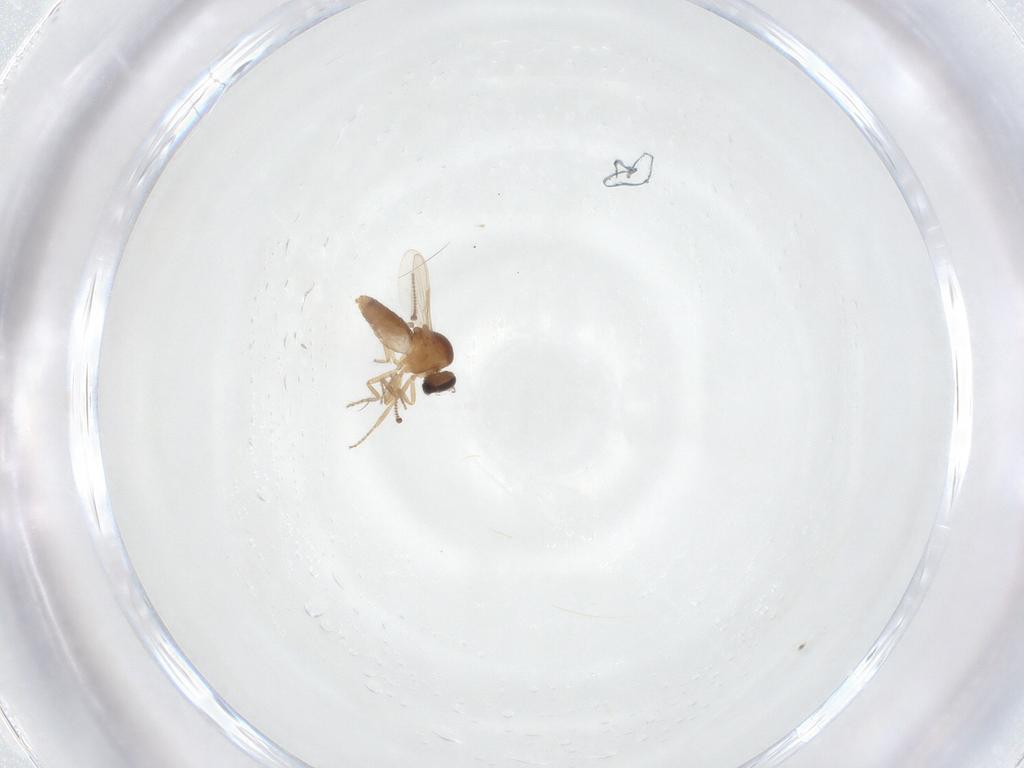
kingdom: Animalia
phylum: Arthropoda
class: Insecta
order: Diptera
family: Ceratopogonidae
